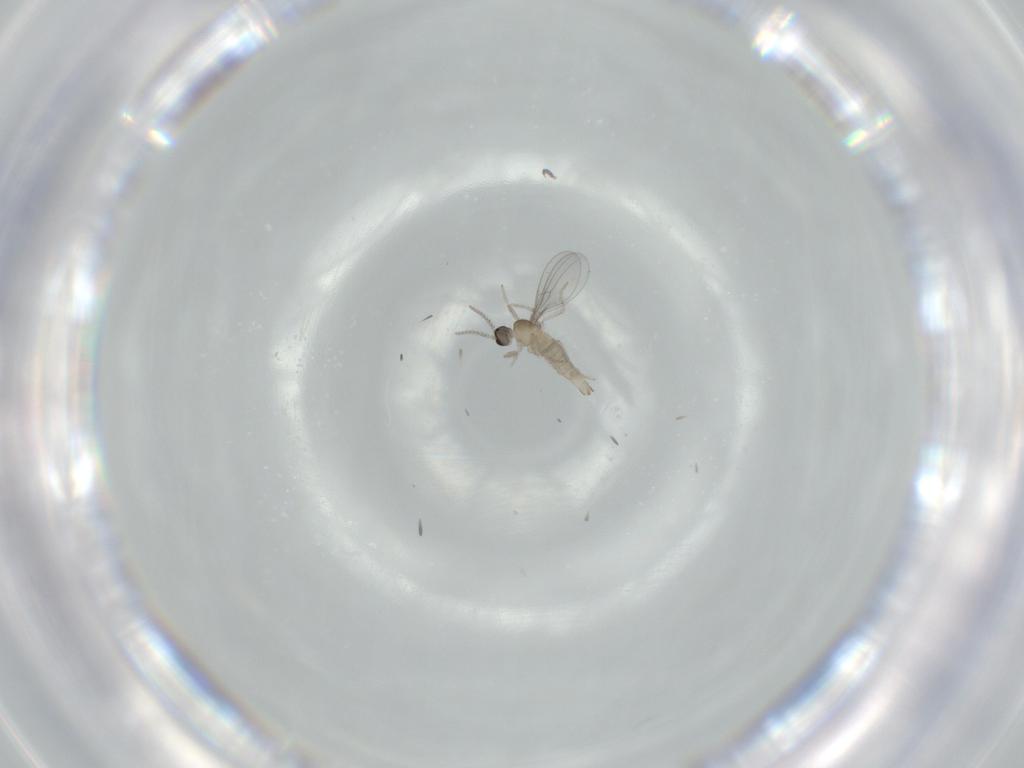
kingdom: Animalia
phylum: Arthropoda
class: Insecta
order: Diptera
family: Cecidomyiidae
